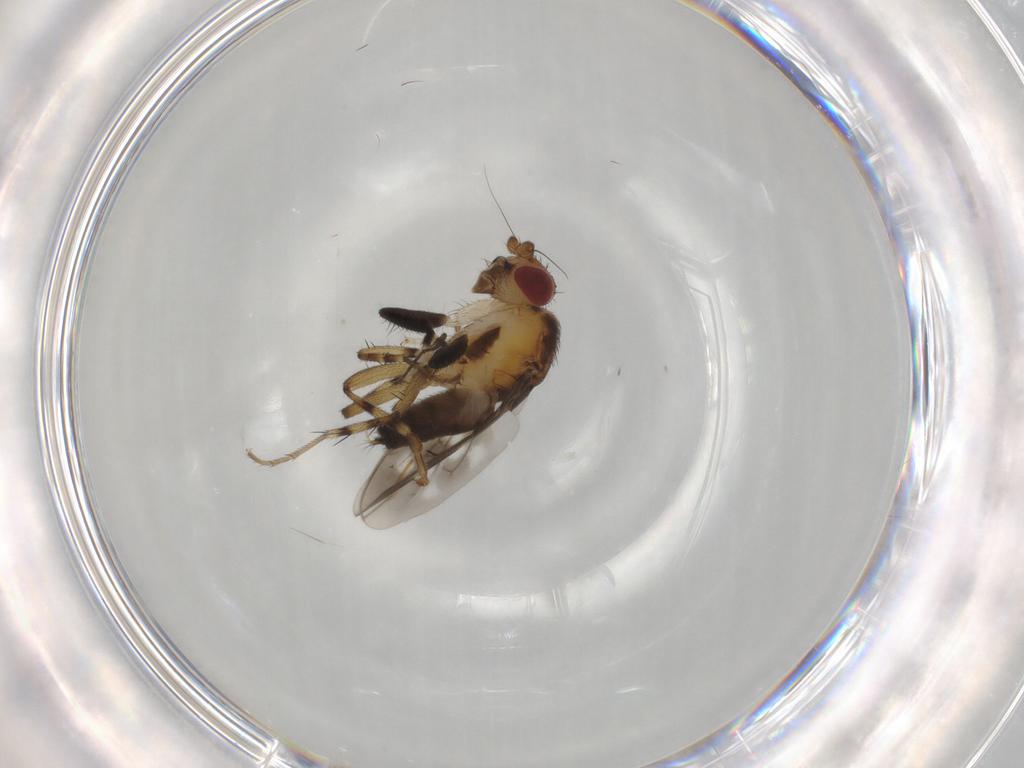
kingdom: Animalia
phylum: Arthropoda
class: Insecta
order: Diptera
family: Sphaeroceridae
